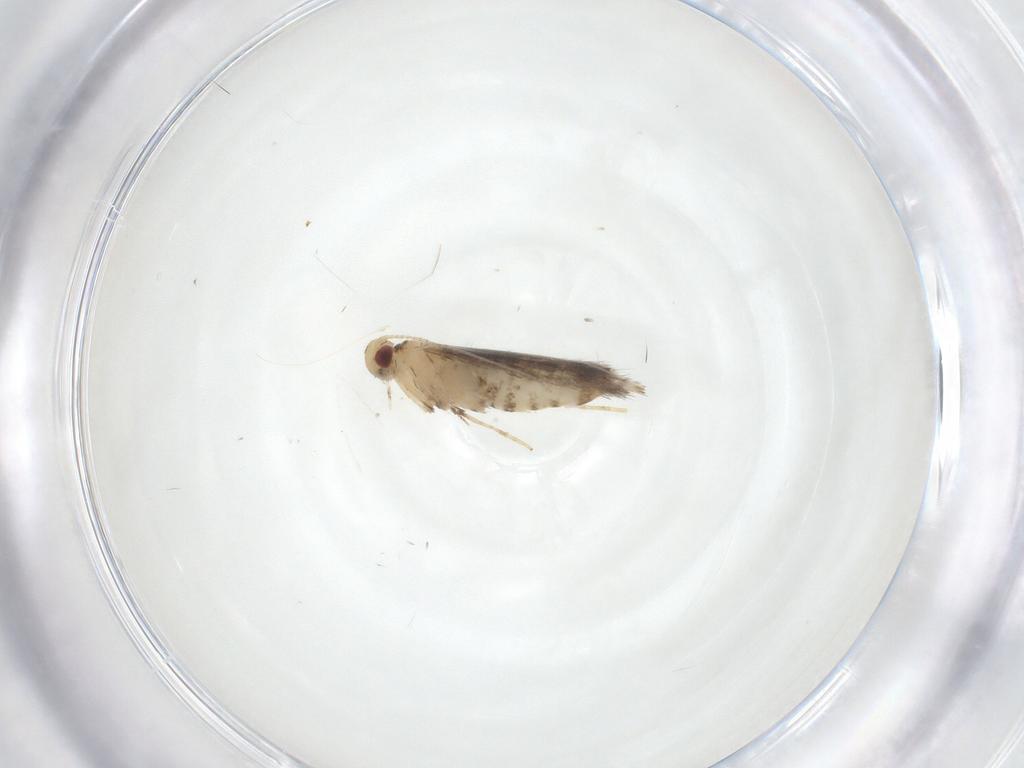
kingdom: Animalia
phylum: Arthropoda
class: Insecta
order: Lepidoptera
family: Gracillariidae
